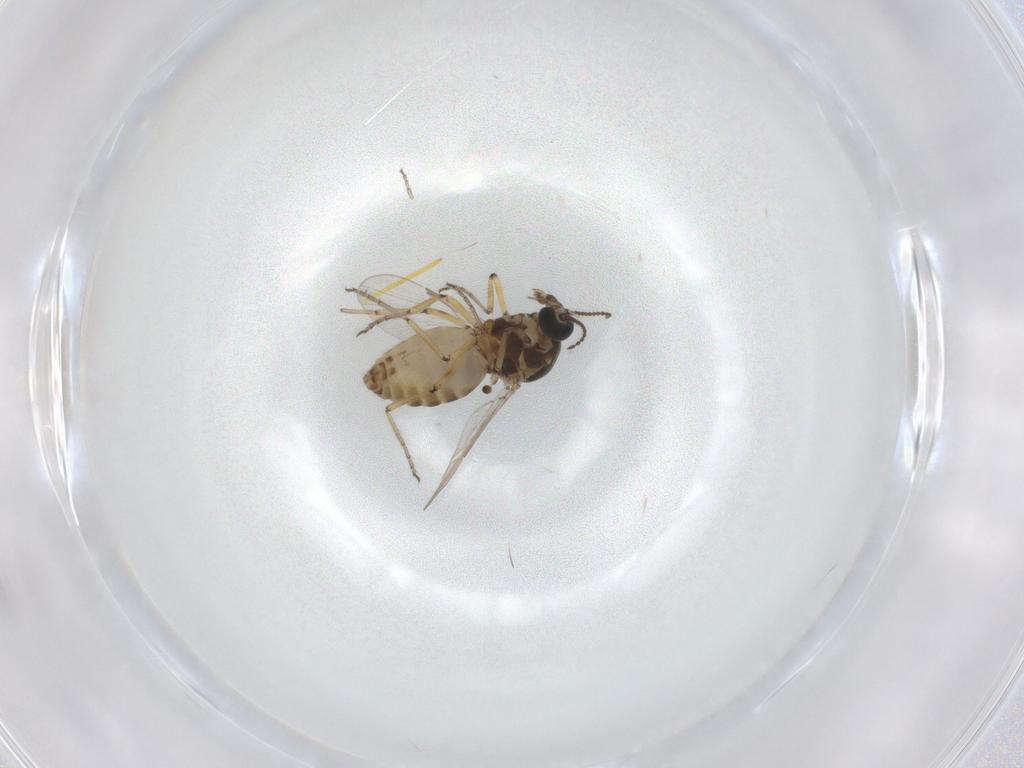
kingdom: Animalia
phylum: Arthropoda
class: Insecta
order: Diptera
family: Ceratopogonidae
